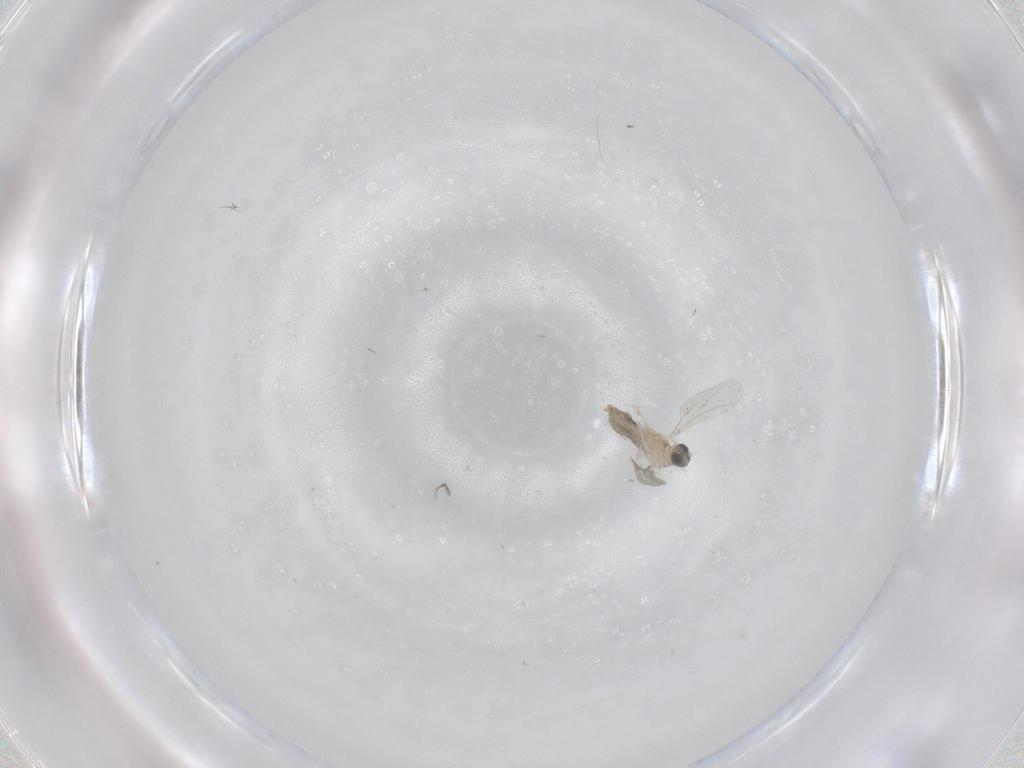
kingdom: Animalia
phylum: Arthropoda
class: Insecta
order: Diptera
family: Cecidomyiidae
